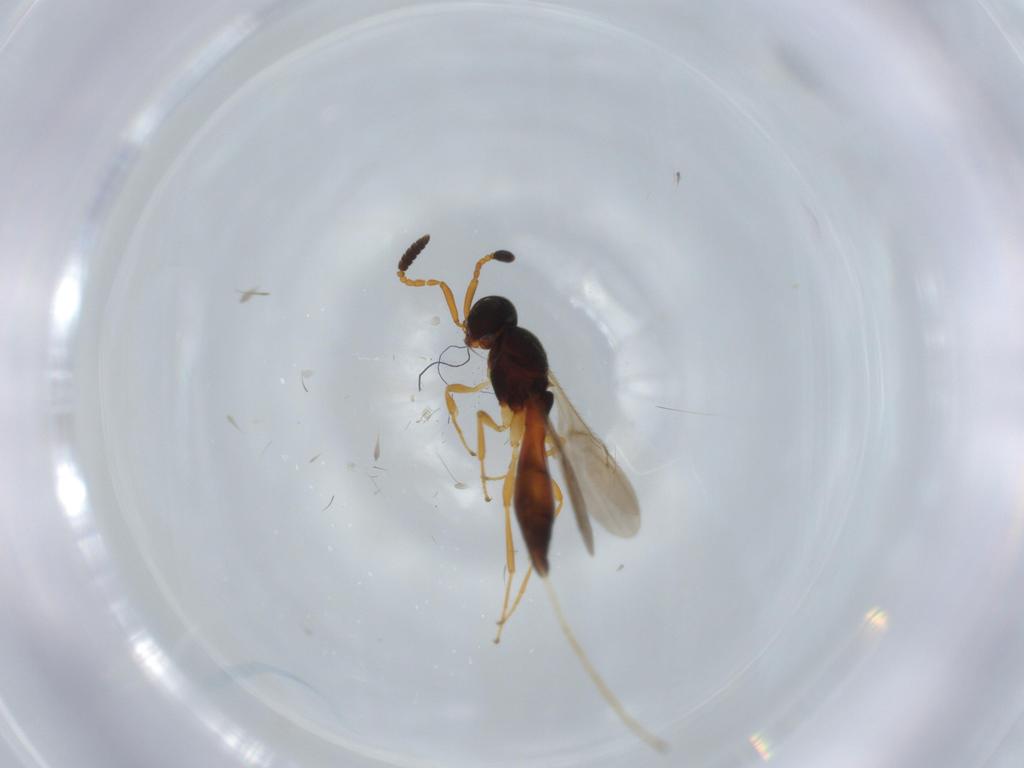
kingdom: Animalia
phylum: Arthropoda
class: Insecta
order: Hymenoptera
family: Scelionidae
